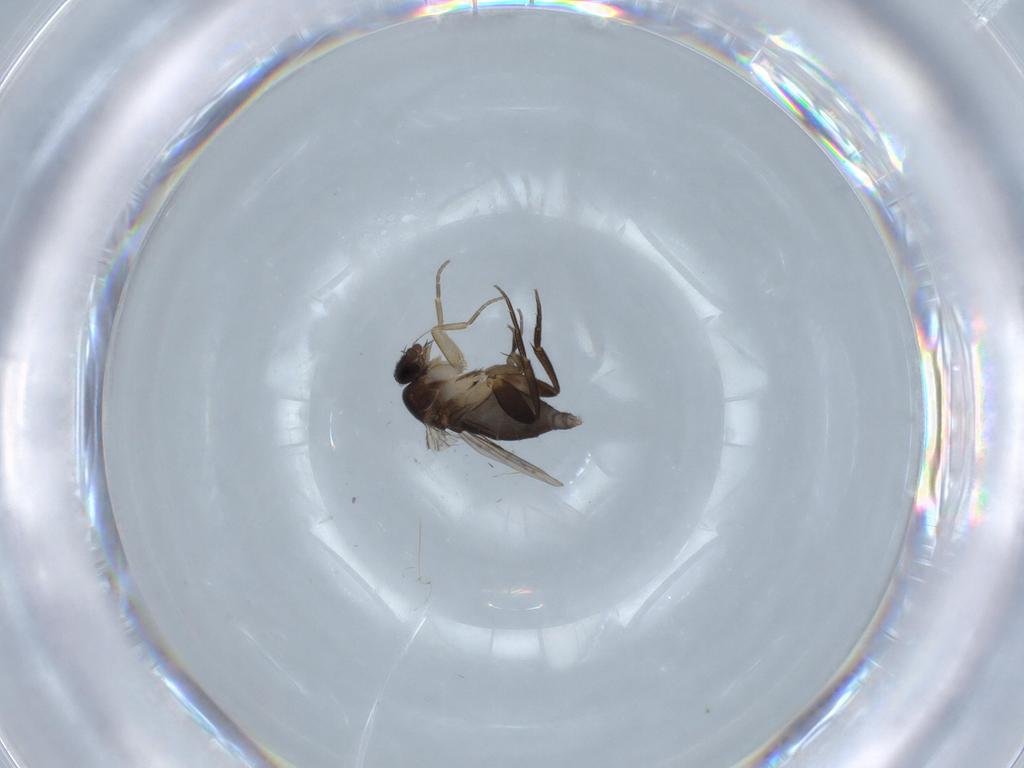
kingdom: Animalia
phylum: Arthropoda
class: Insecta
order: Diptera
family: Phoridae
